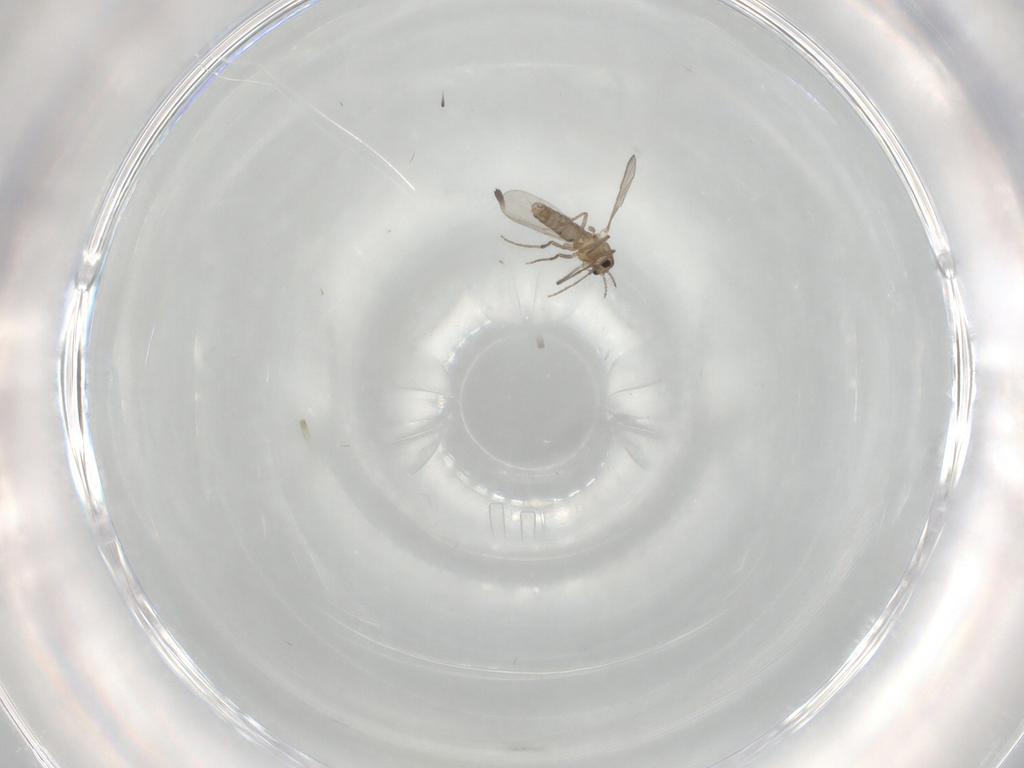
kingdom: Animalia
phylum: Arthropoda
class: Insecta
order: Diptera
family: Chironomidae
